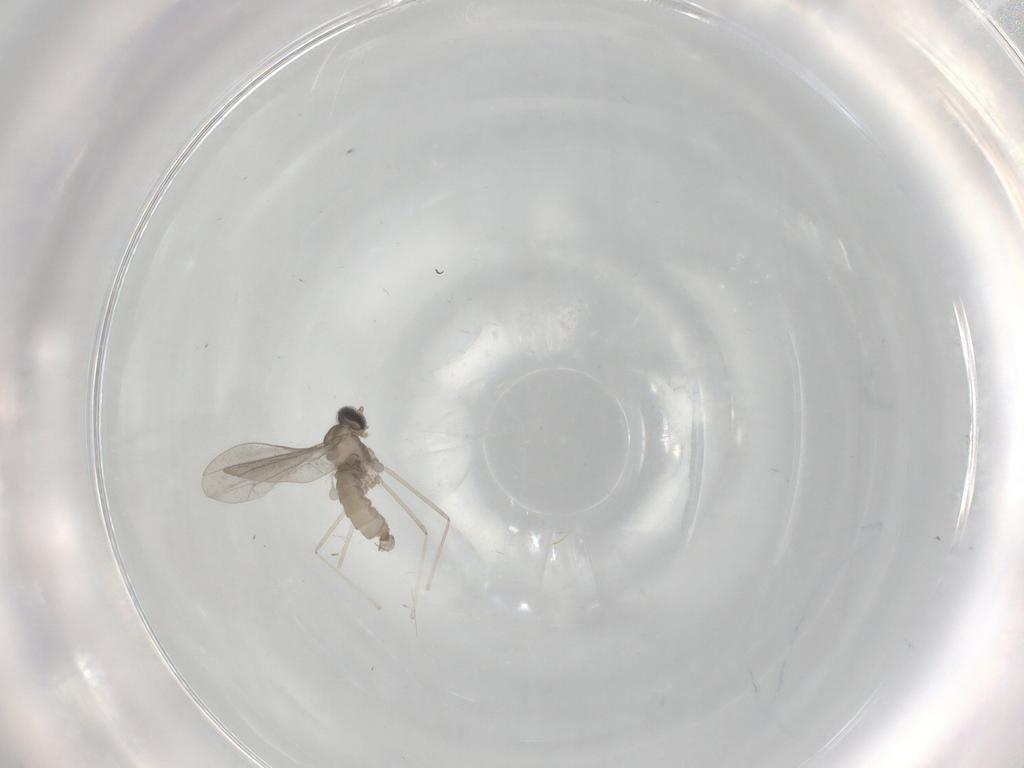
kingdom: Animalia
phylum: Arthropoda
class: Insecta
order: Diptera
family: Cecidomyiidae
